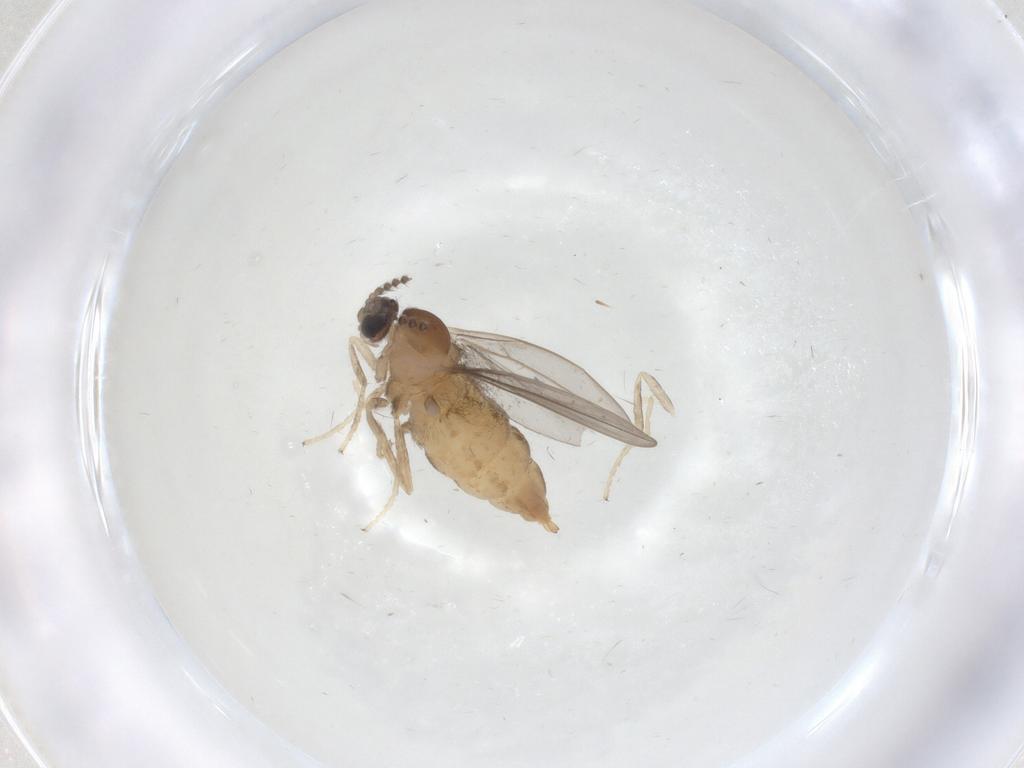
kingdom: Animalia
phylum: Arthropoda
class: Insecta
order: Diptera
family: Cecidomyiidae
